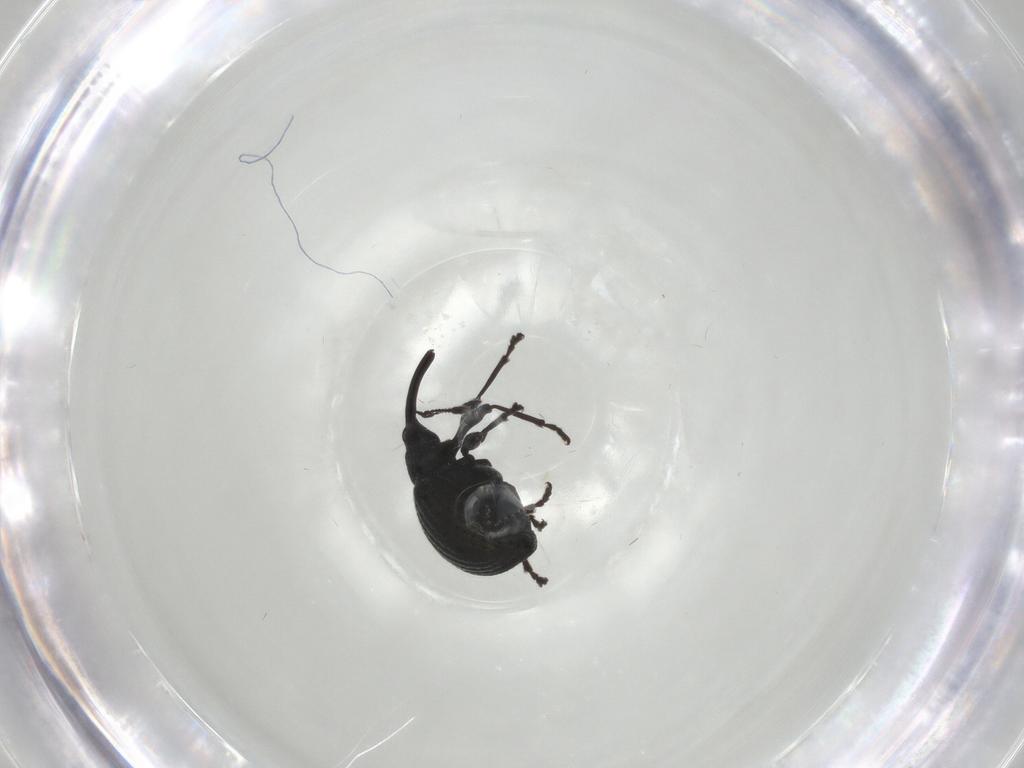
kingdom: Animalia
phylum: Arthropoda
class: Insecta
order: Coleoptera
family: Brentidae
